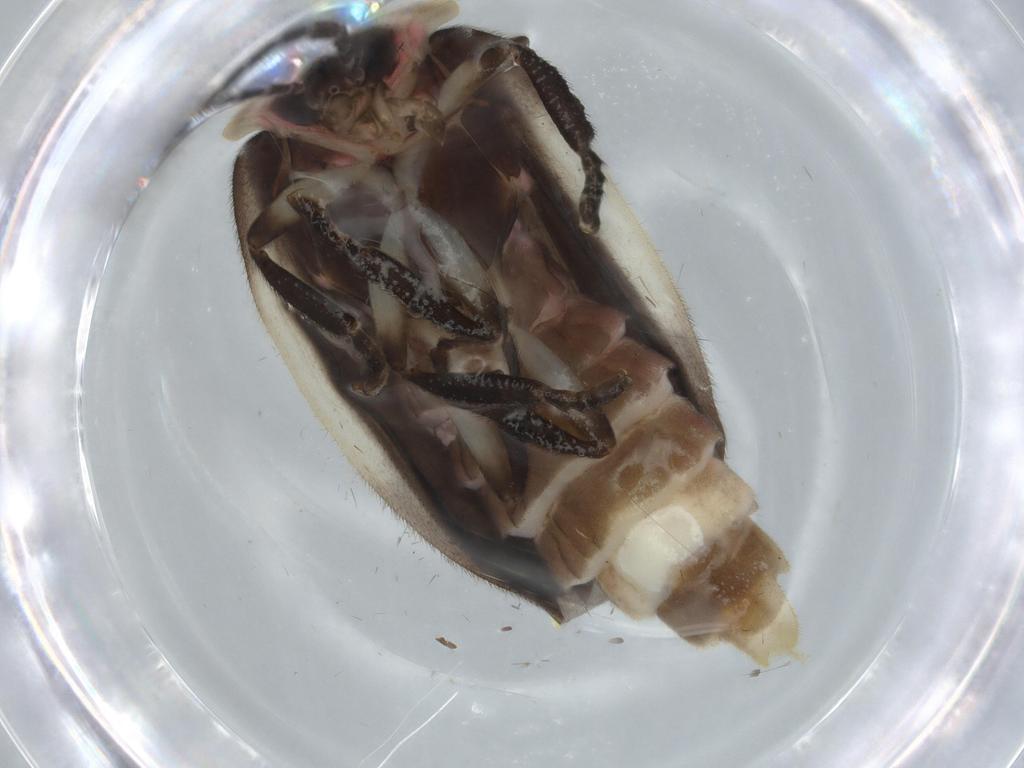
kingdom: Animalia
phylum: Arthropoda
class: Insecta
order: Coleoptera
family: Lampyridae
